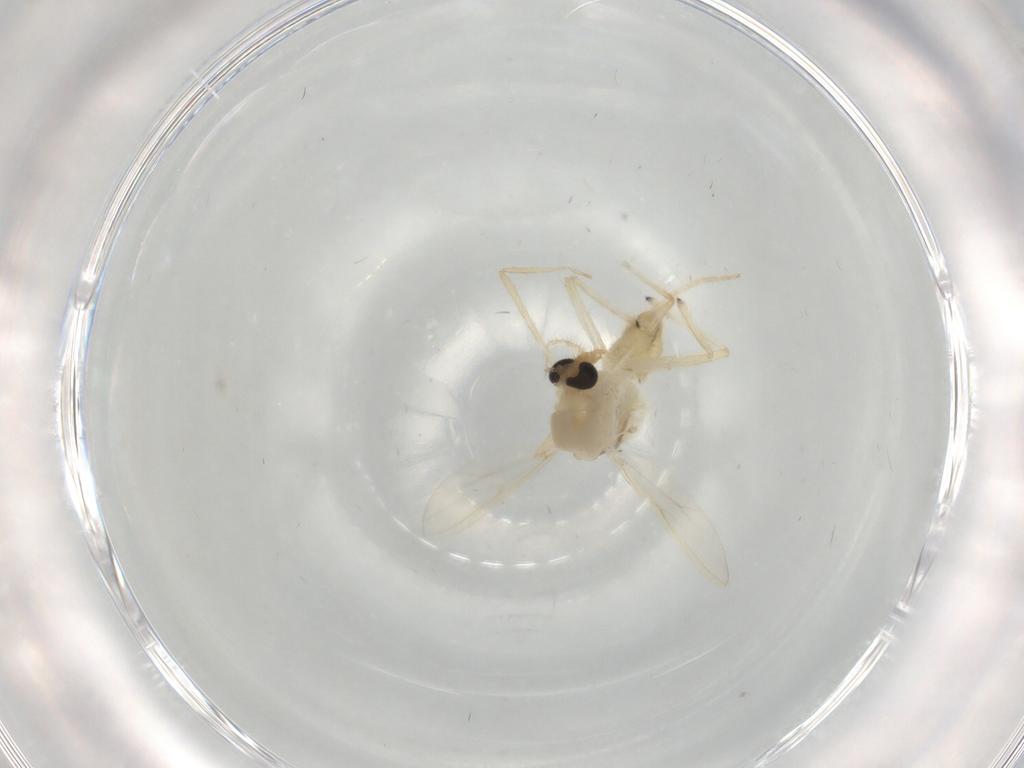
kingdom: Animalia
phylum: Arthropoda
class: Insecta
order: Diptera
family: Chironomidae
